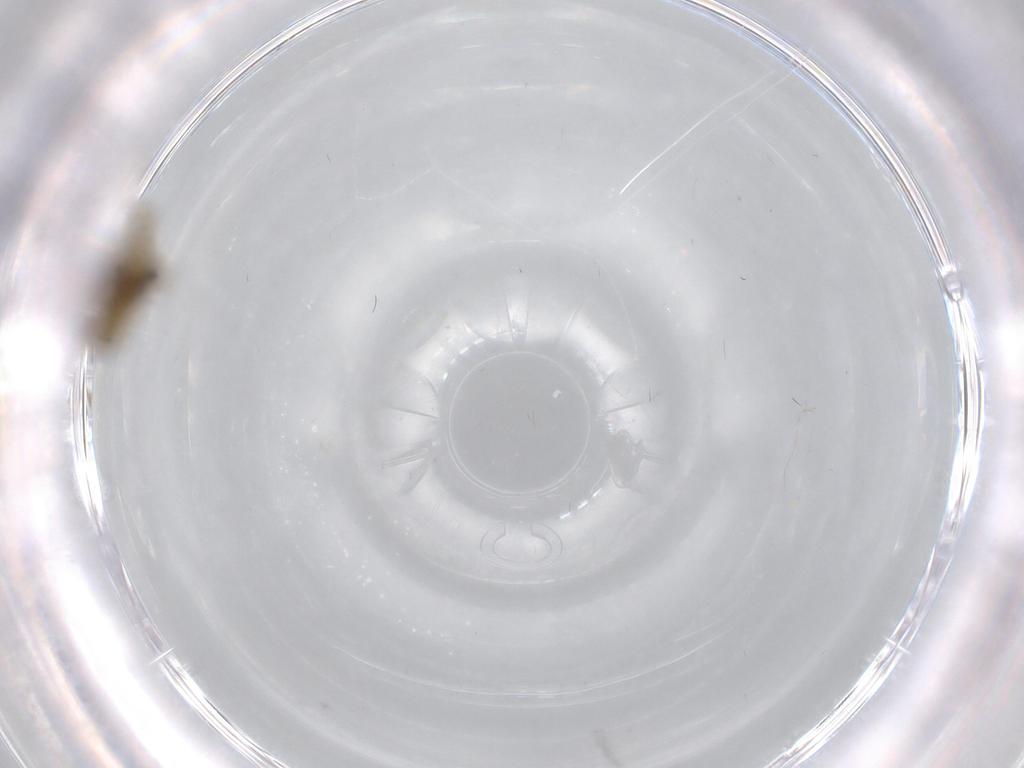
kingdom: Animalia
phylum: Arthropoda
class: Insecta
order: Diptera
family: Chironomidae
